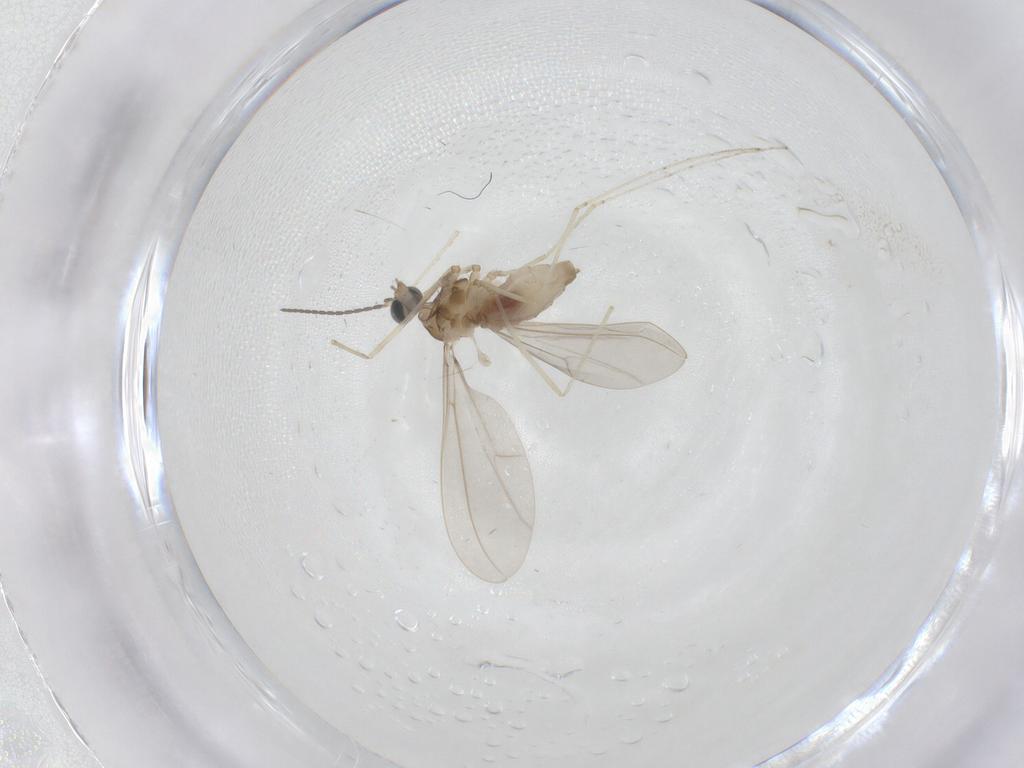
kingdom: Animalia
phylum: Arthropoda
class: Insecta
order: Diptera
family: Cecidomyiidae
